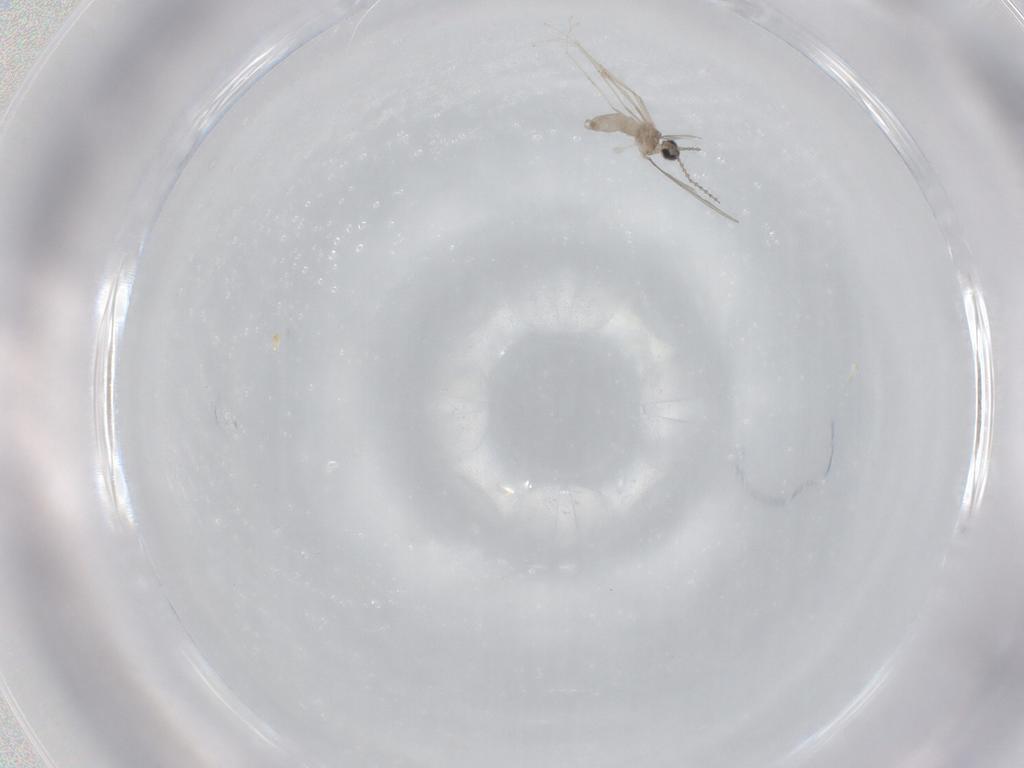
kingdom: Animalia
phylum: Arthropoda
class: Insecta
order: Diptera
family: Cecidomyiidae
